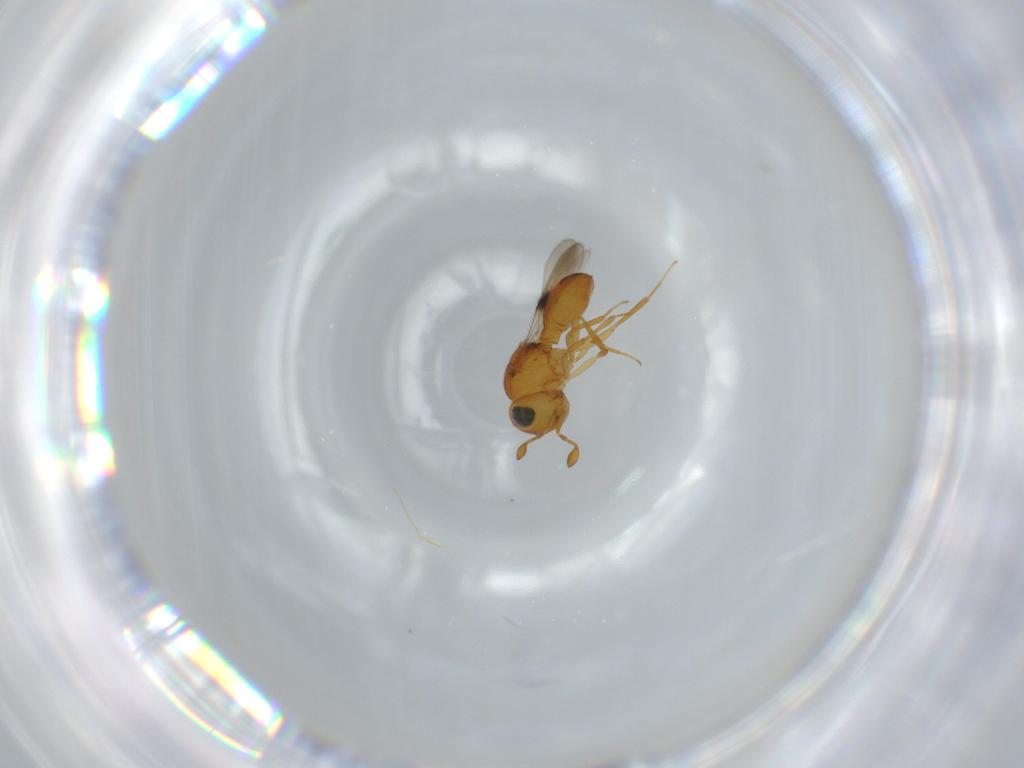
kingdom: Animalia
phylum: Arthropoda
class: Insecta
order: Hymenoptera
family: Scelionidae
